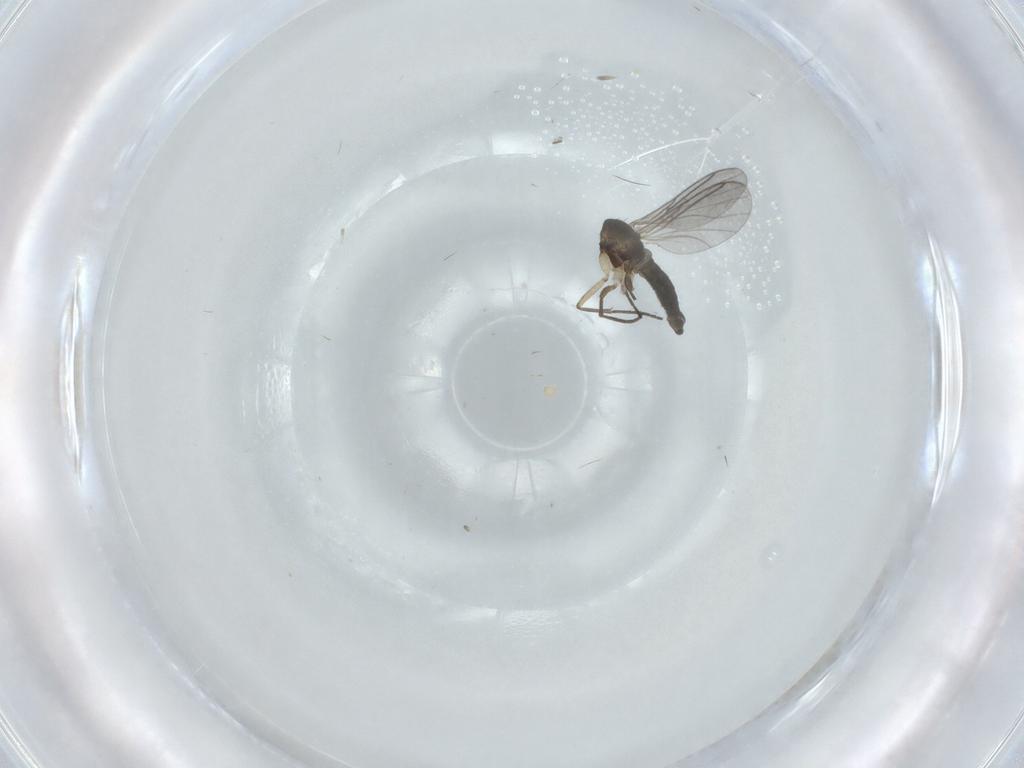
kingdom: Animalia
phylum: Arthropoda
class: Insecta
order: Diptera
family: Sciaridae
